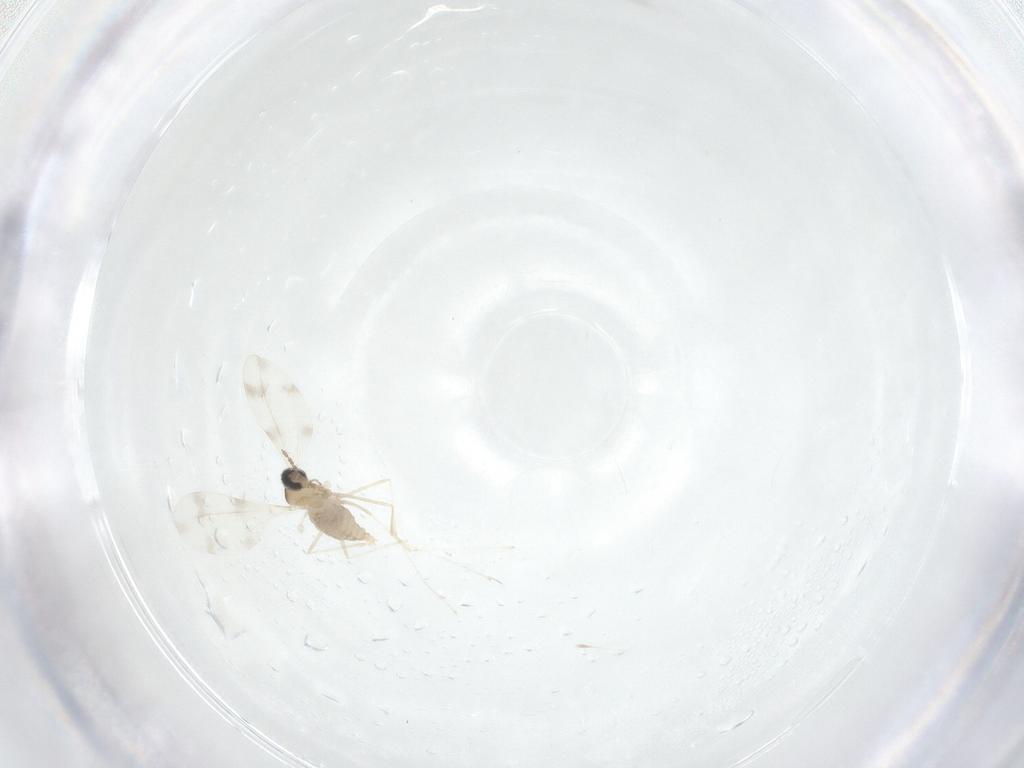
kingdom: Animalia
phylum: Arthropoda
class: Insecta
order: Diptera
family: Cecidomyiidae
